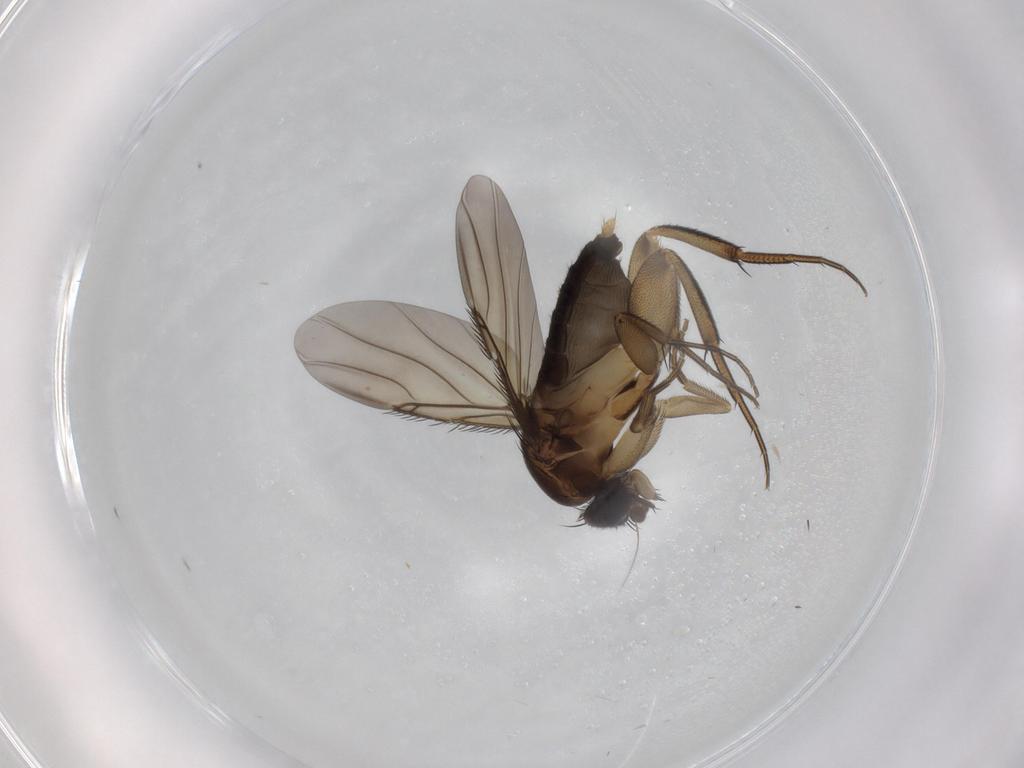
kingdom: Animalia
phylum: Arthropoda
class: Insecta
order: Diptera
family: Phoridae
